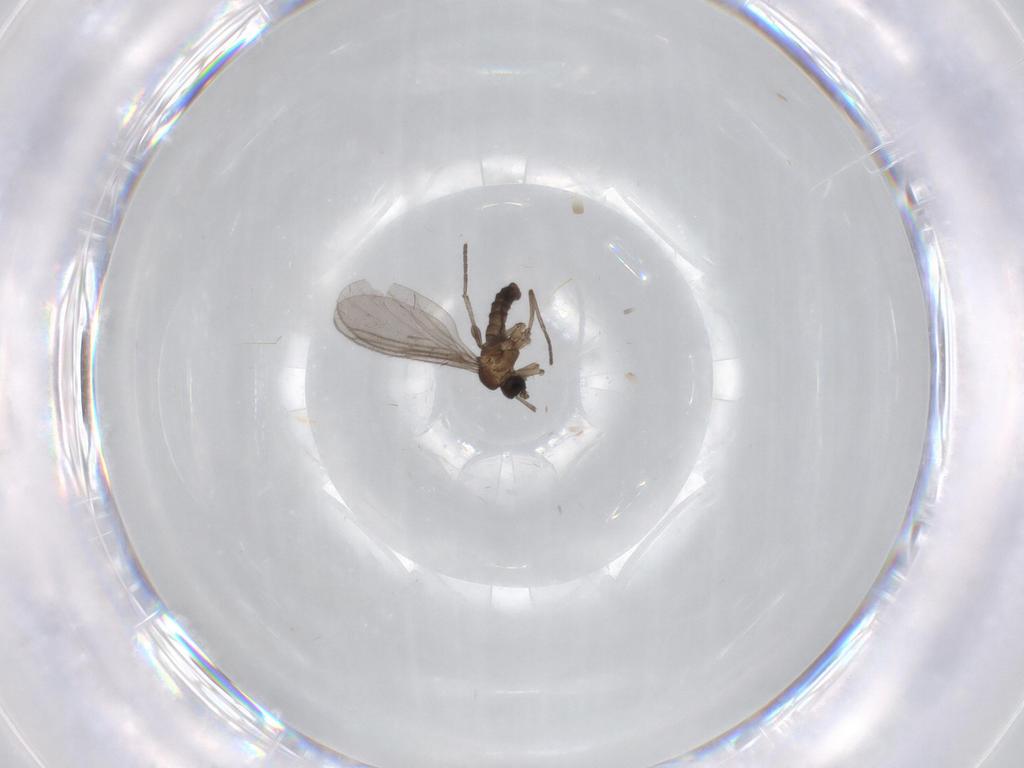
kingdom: Animalia
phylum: Arthropoda
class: Insecta
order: Diptera
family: Sciaridae
